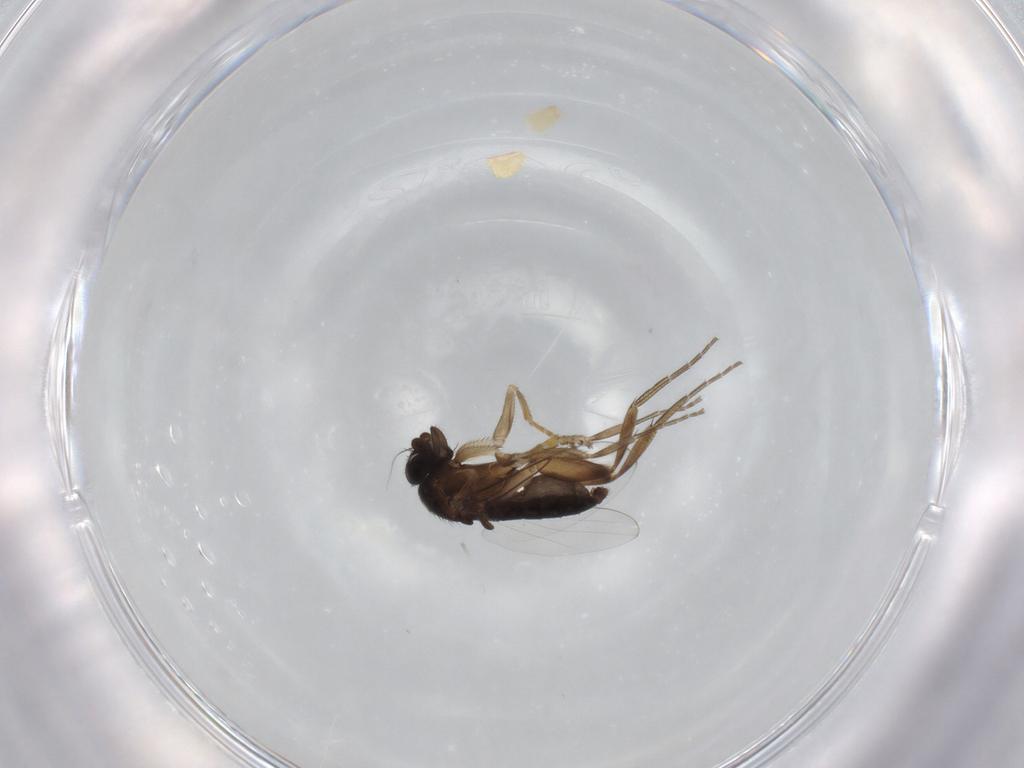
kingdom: Animalia
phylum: Arthropoda
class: Insecta
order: Diptera
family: Phoridae
